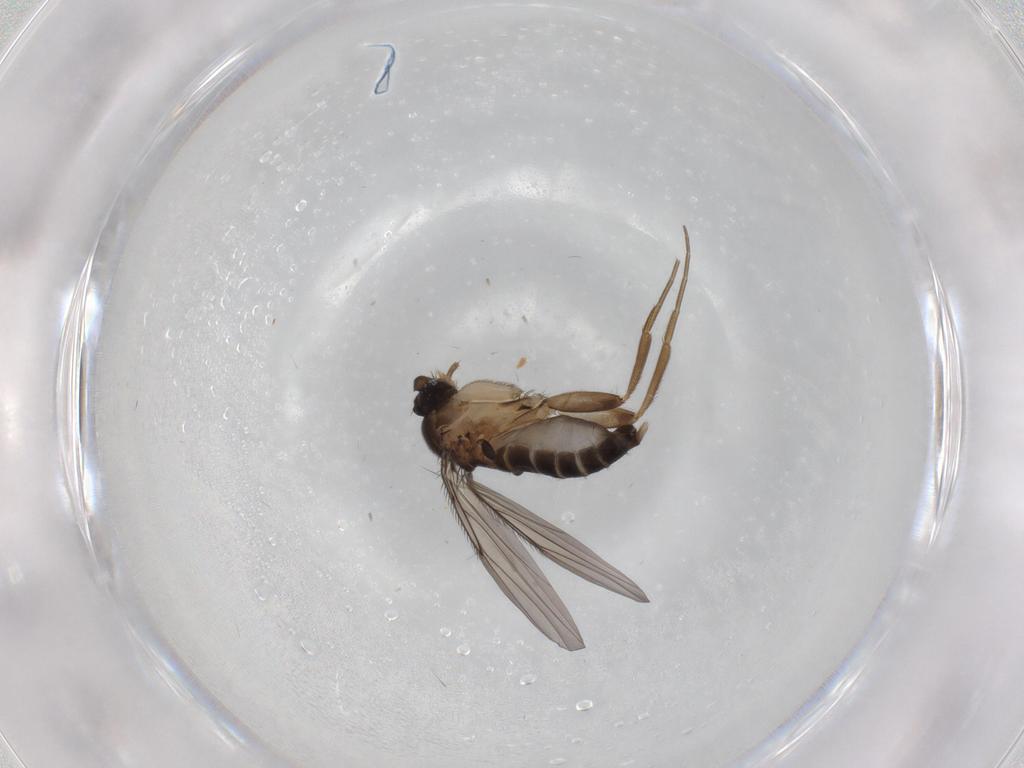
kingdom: Animalia
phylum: Arthropoda
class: Insecta
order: Diptera
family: Phoridae
